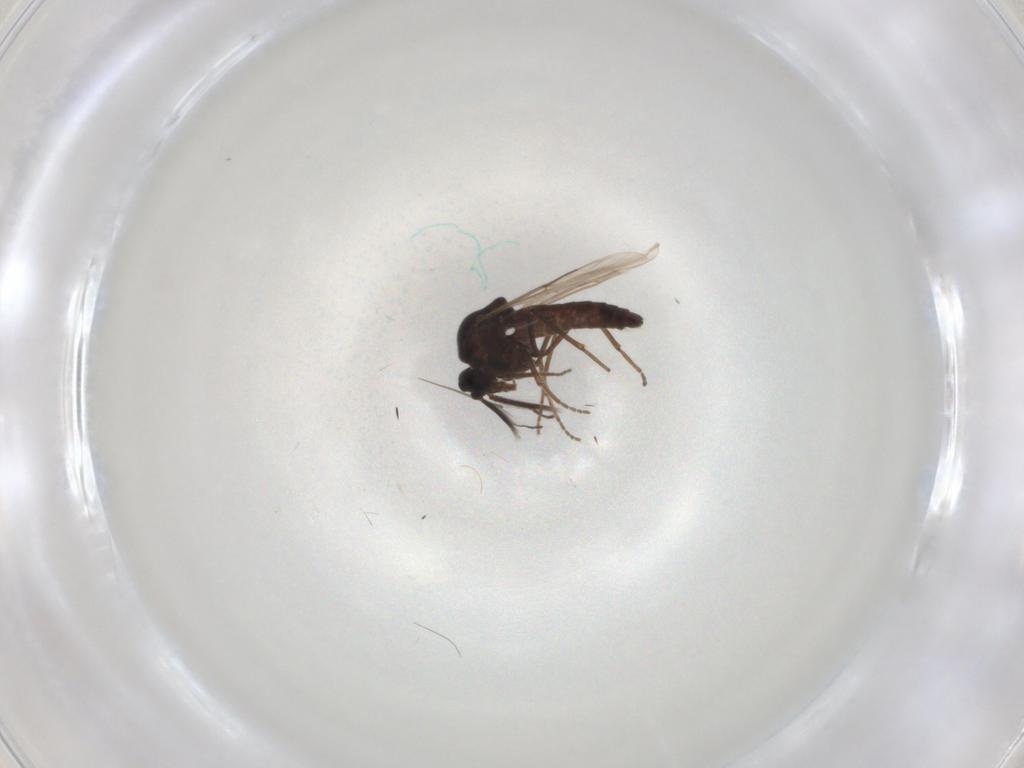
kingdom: Animalia
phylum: Arthropoda
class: Insecta
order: Diptera
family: Ceratopogonidae
